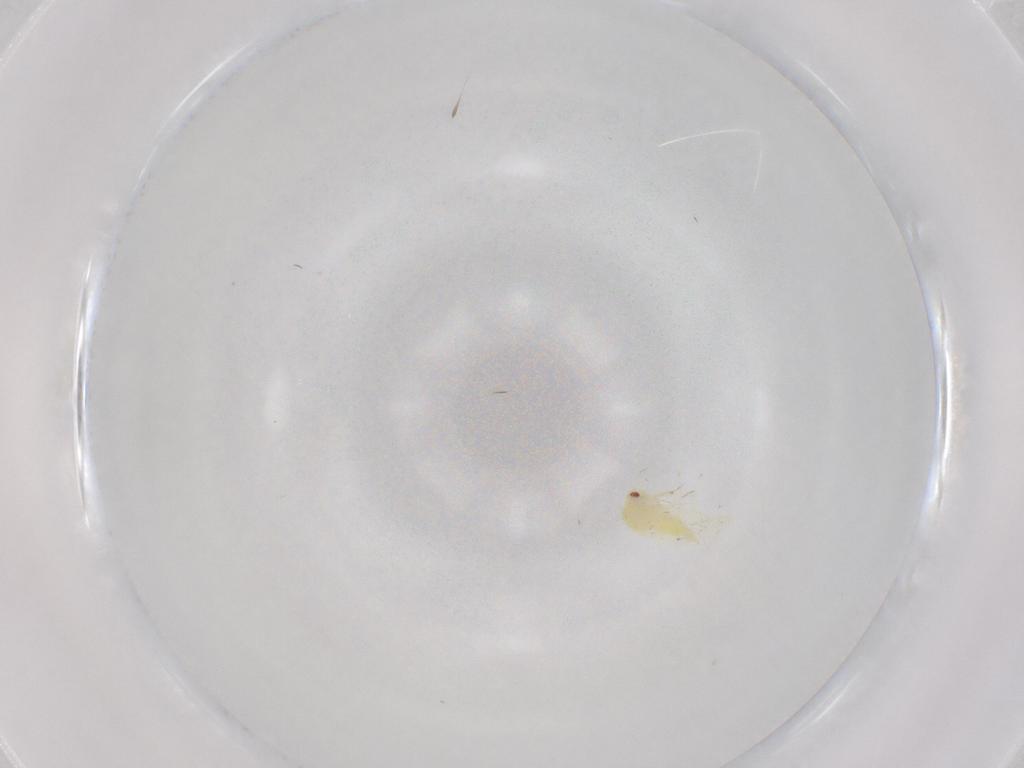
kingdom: Animalia
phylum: Arthropoda
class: Insecta
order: Hemiptera
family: Aleyrodidae
